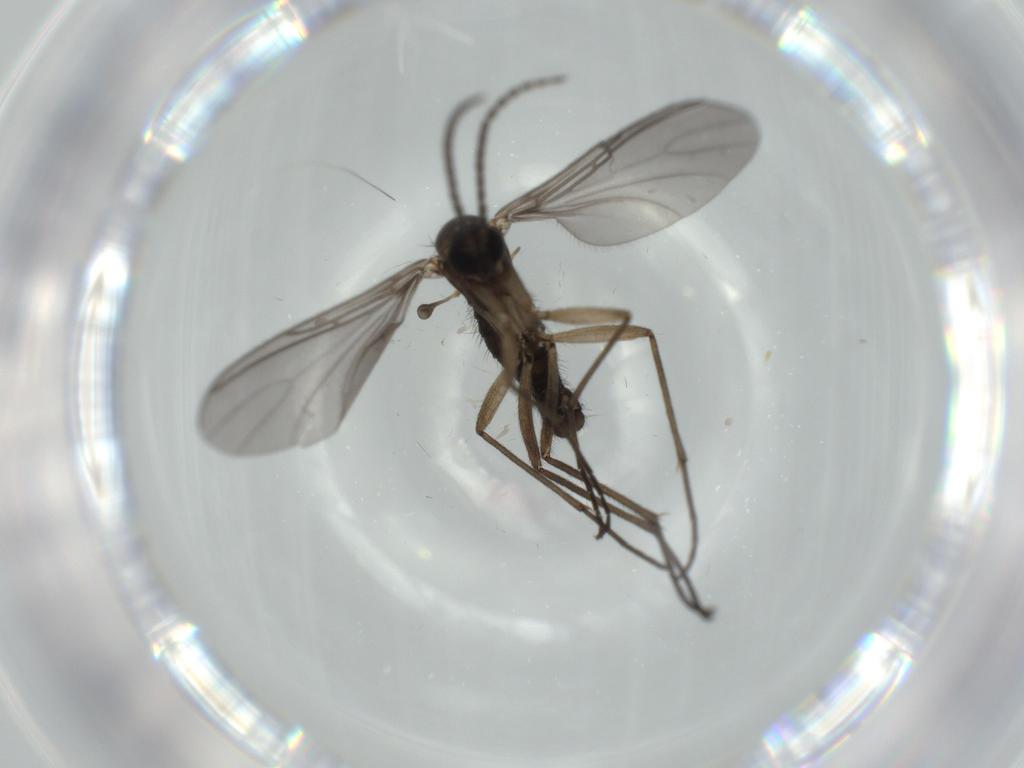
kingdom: Animalia
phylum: Arthropoda
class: Insecta
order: Diptera
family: Sciaridae
